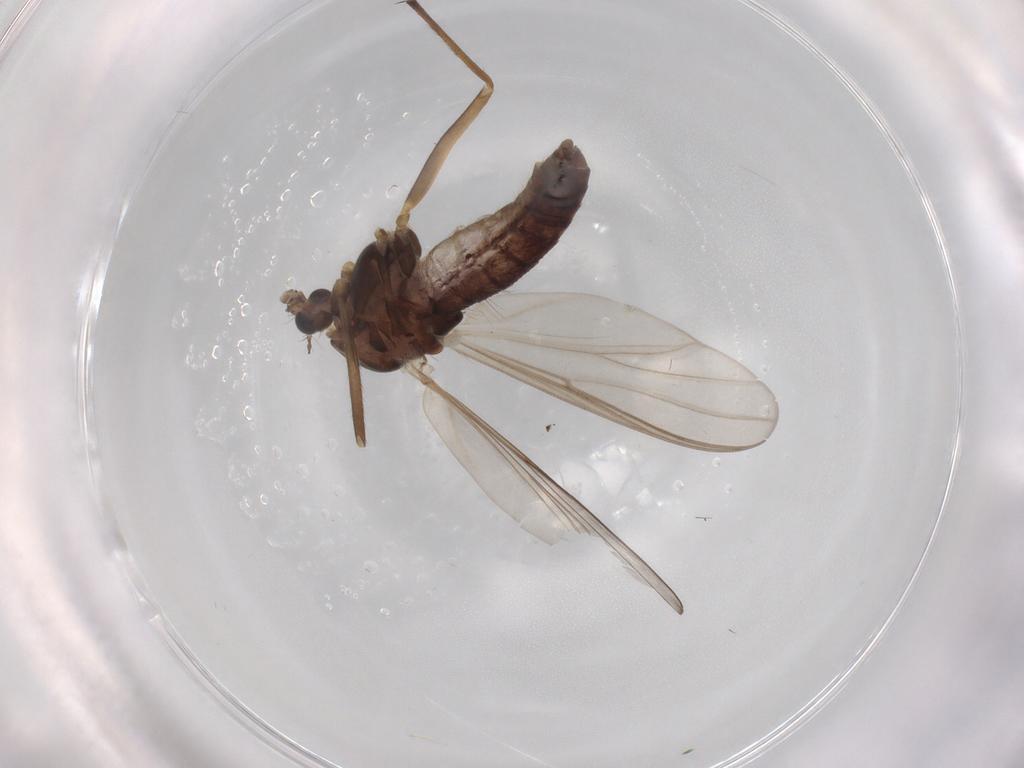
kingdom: Animalia
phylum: Arthropoda
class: Insecta
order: Diptera
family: Chironomidae
